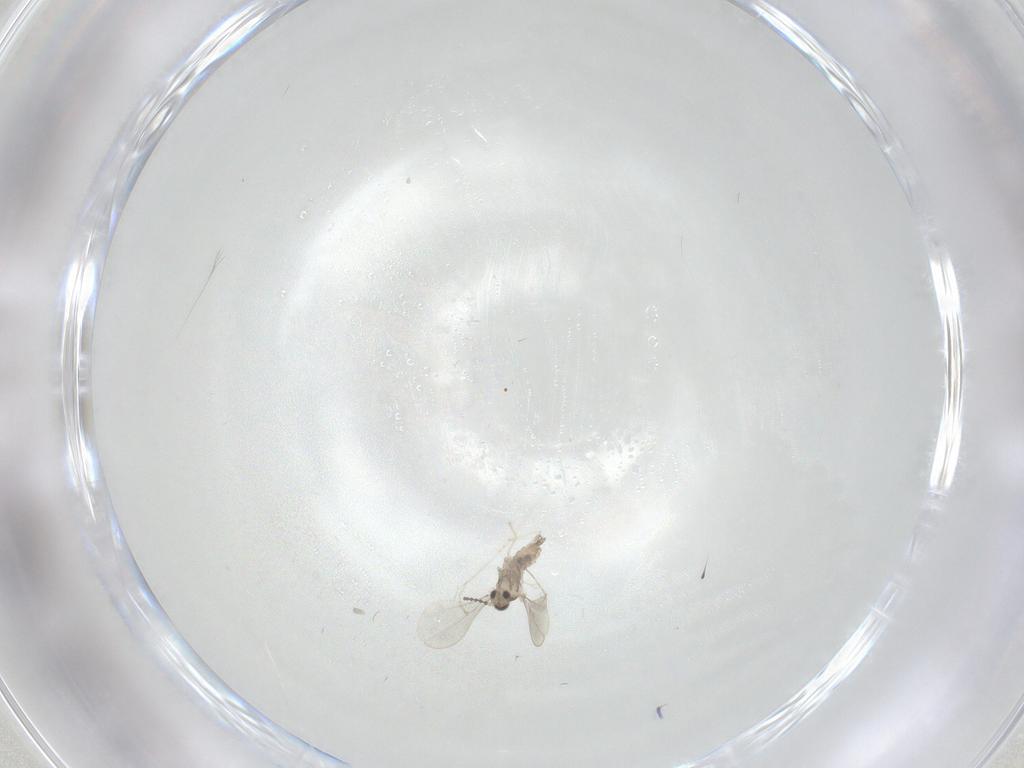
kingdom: Animalia
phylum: Arthropoda
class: Insecta
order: Diptera
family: Cecidomyiidae
